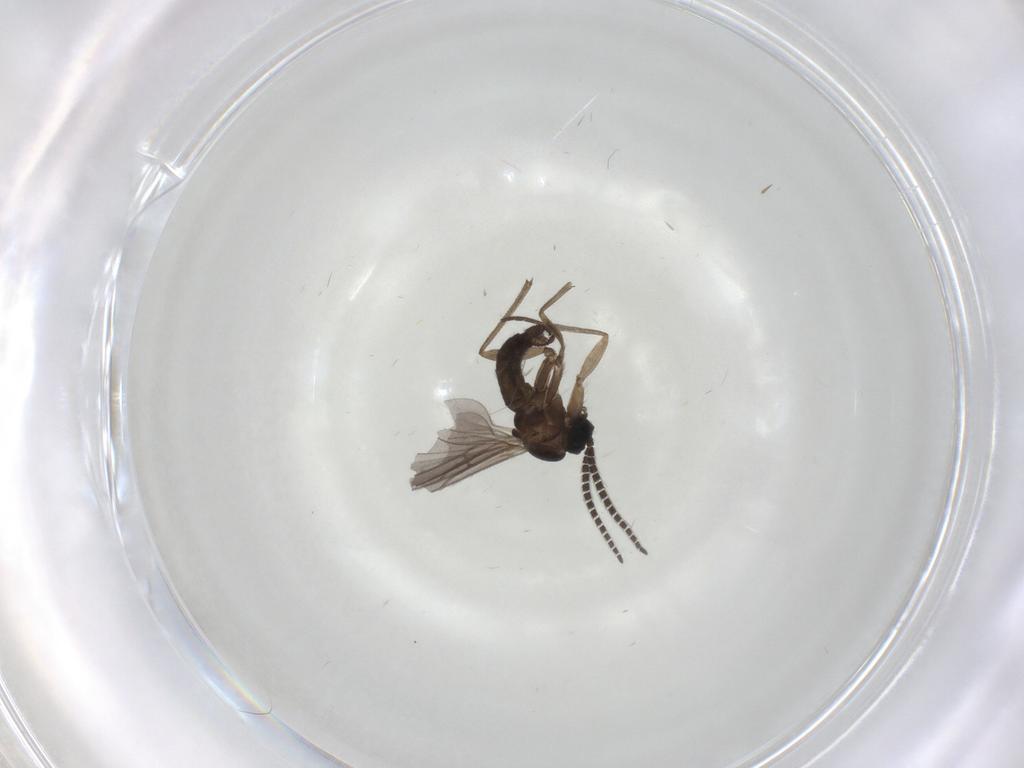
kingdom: Animalia
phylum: Arthropoda
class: Insecta
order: Diptera
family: Sciaridae
